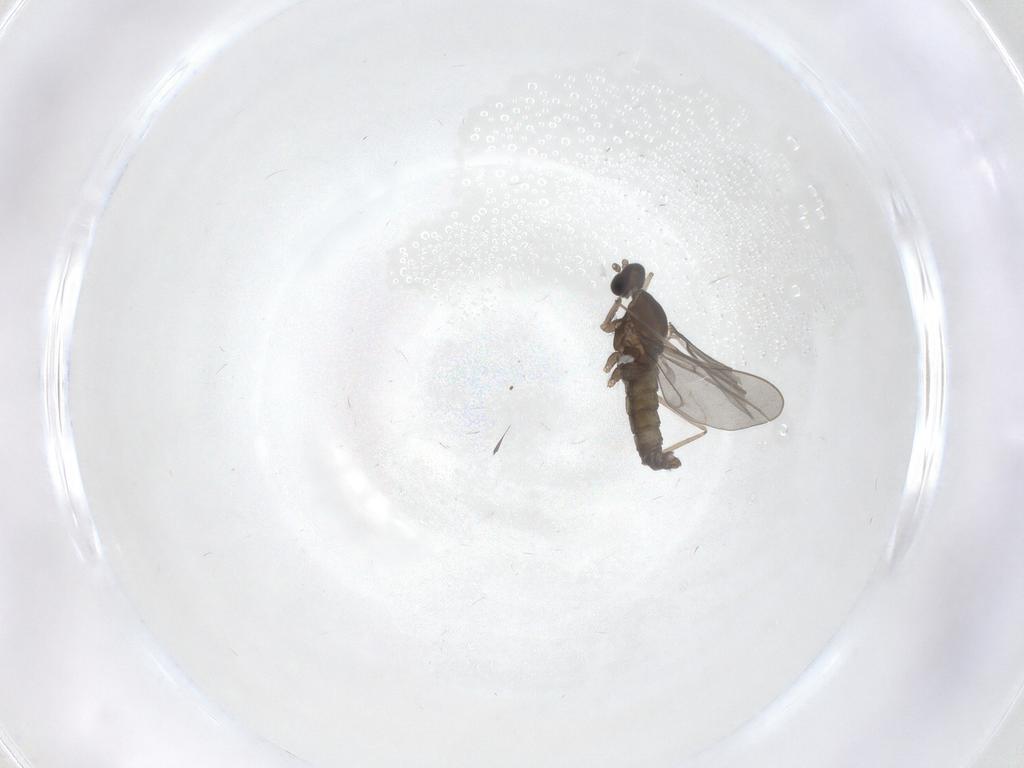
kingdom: Animalia
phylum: Arthropoda
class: Insecta
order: Diptera
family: Cecidomyiidae
